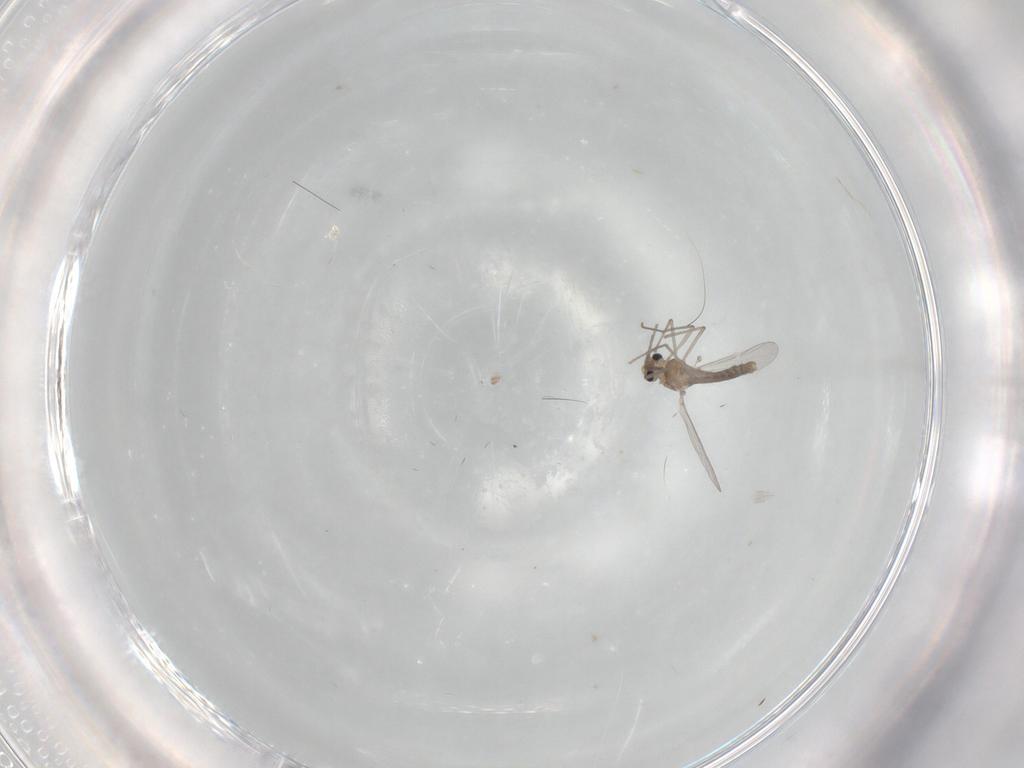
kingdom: Animalia
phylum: Arthropoda
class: Insecta
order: Diptera
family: Chironomidae
